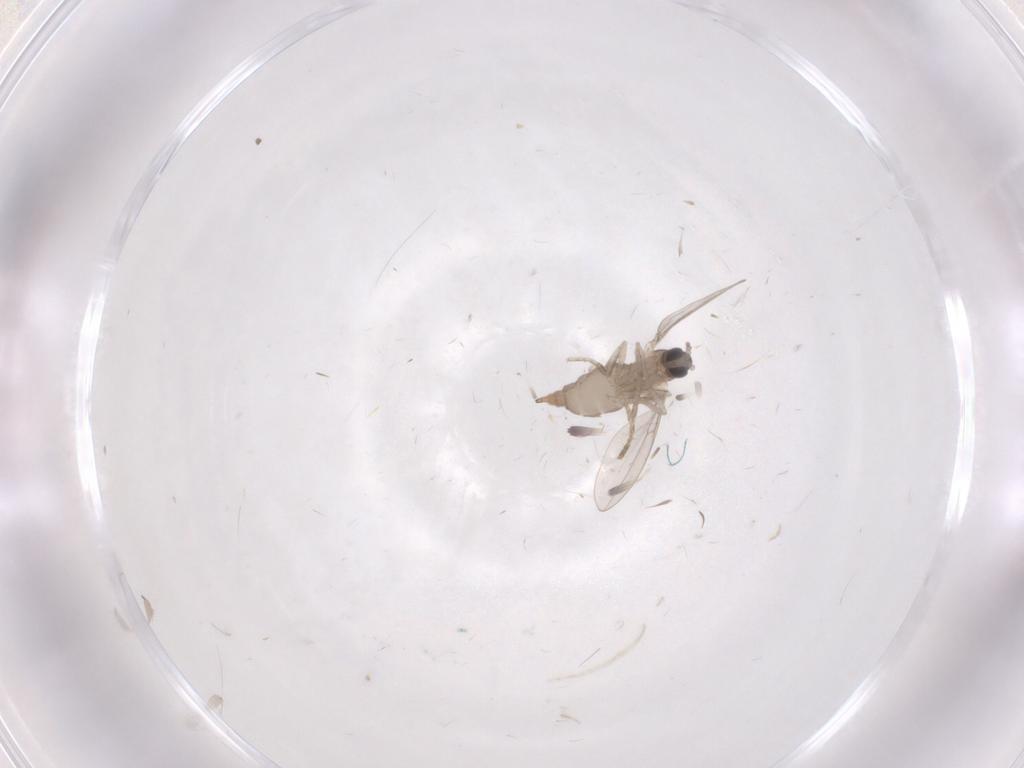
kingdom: Animalia
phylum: Arthropoda
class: Insecta
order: Diptera
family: Cecidomyiidae
